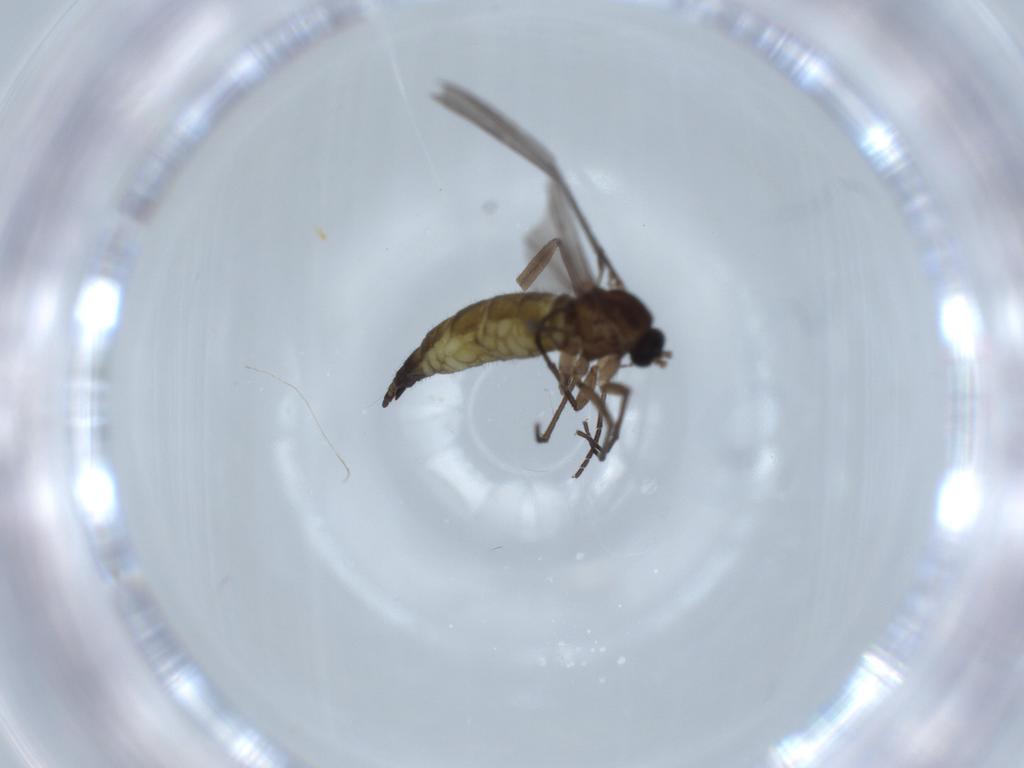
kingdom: Animalia
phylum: Arthropoda
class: Insecta
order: Diptera
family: Sciaridae
